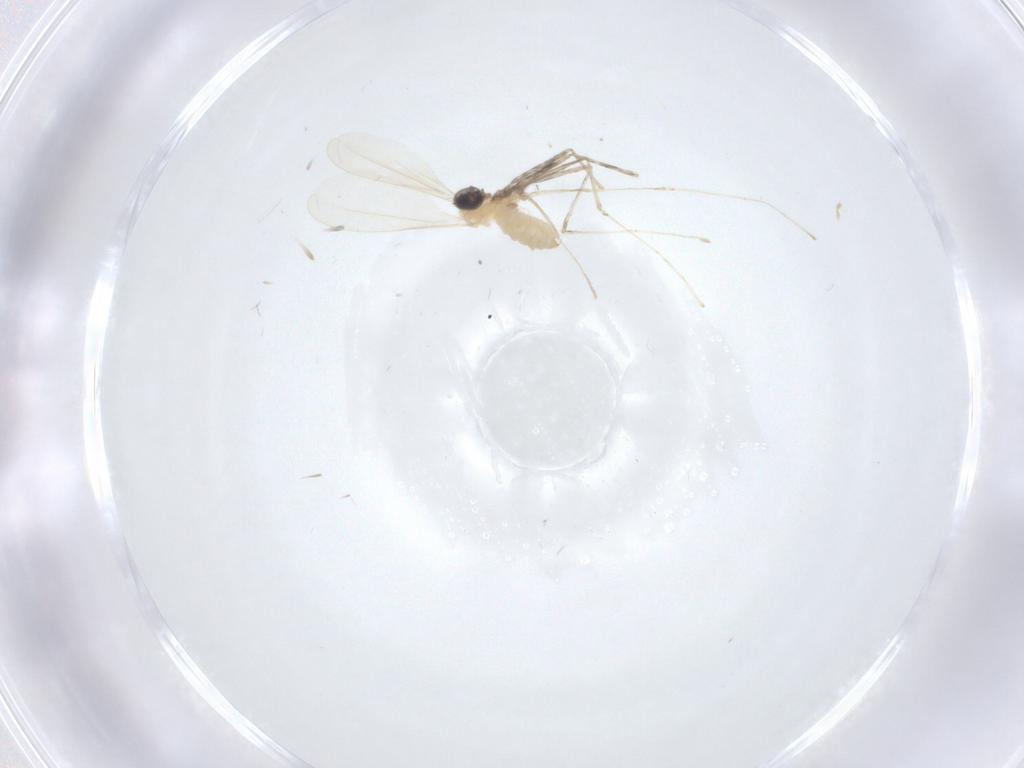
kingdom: Animalia
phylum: Arthropoda
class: Insecta
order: Diptera
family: Cecidomyiidae
